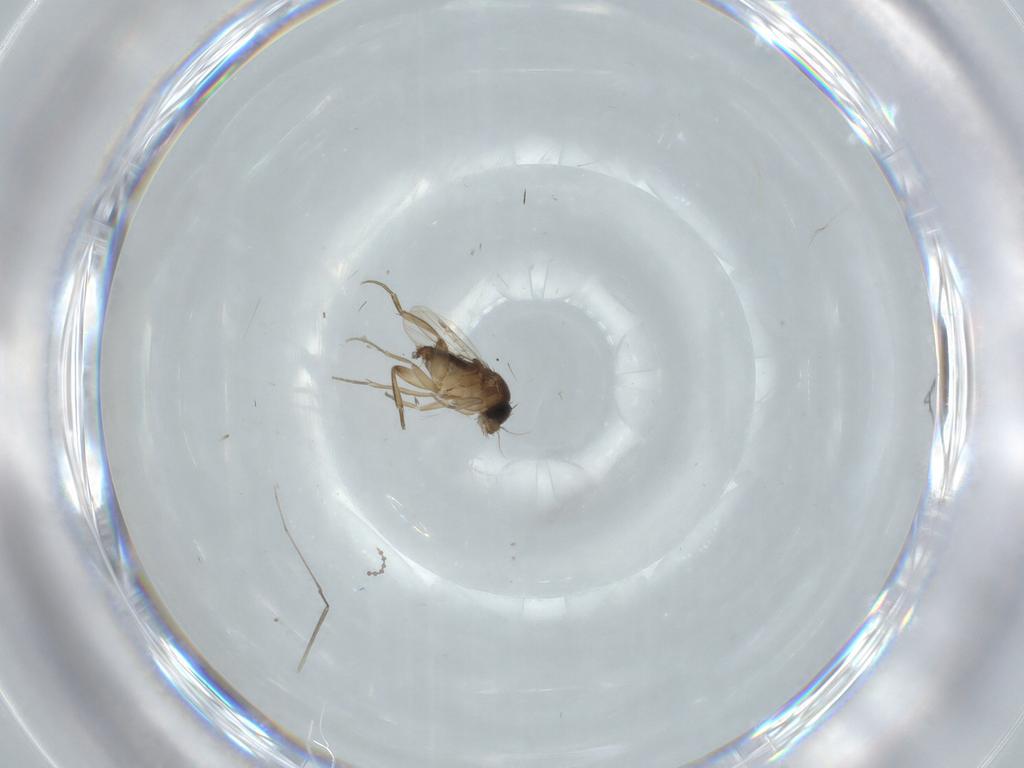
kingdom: Animalia
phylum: Arthropoda
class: Insecta
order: Diptera
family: Phoridae
